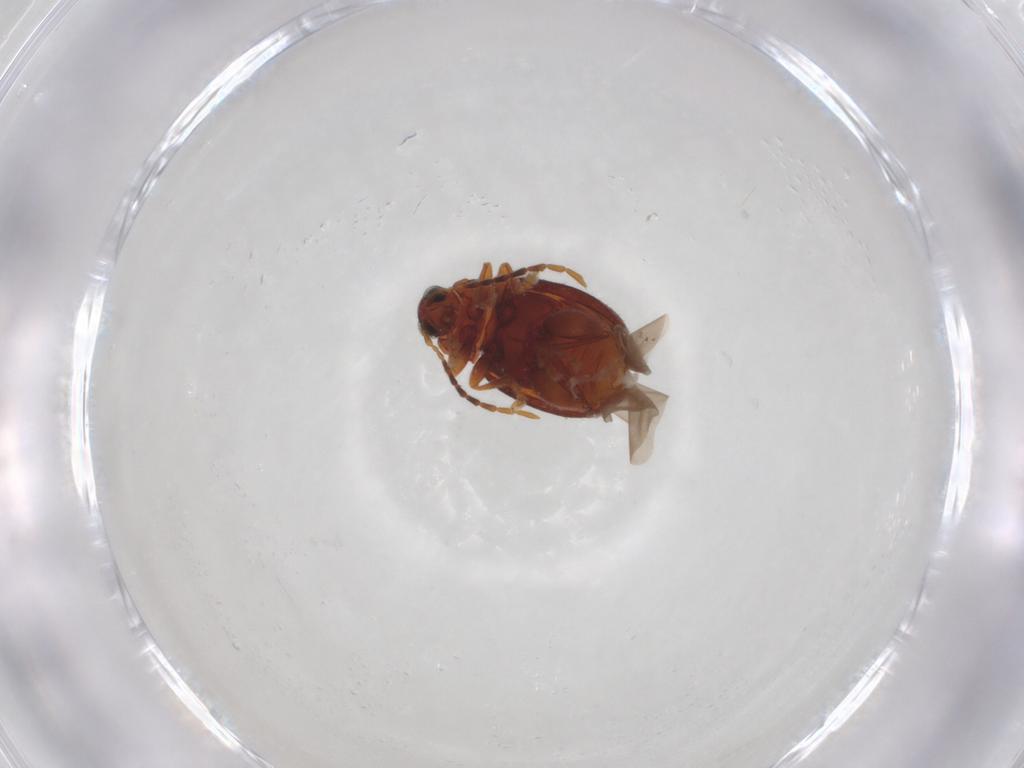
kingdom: Animalia
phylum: Arthropoda
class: Insecta
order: Coleoptera
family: Chrysomelidae
